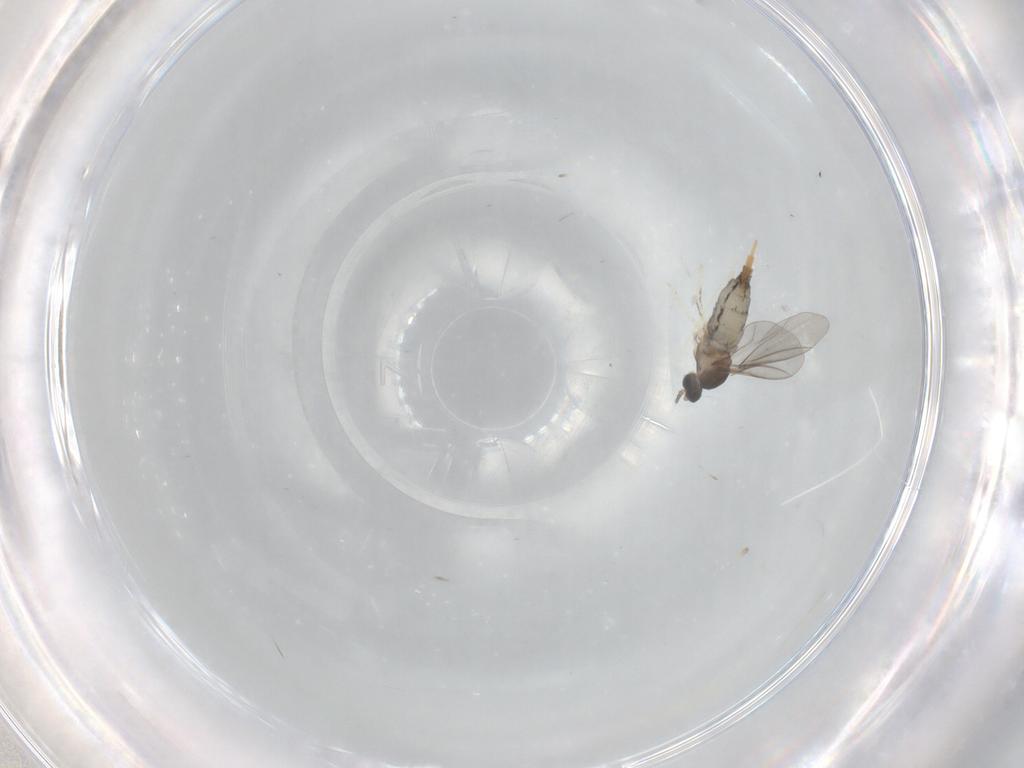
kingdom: Animalia
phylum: Arthropoda
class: Insecta
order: Diptera
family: Cecidomyiidae
